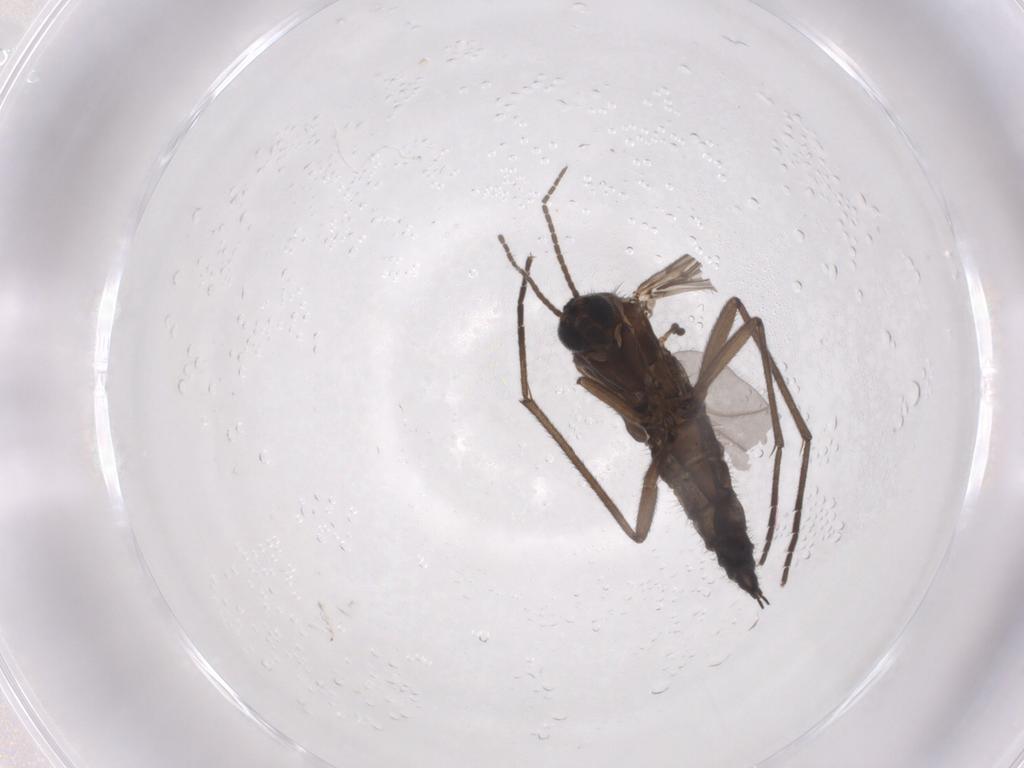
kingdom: Animalia
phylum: Arthropoda
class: Insecta
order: Diptera
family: Sciaridae
